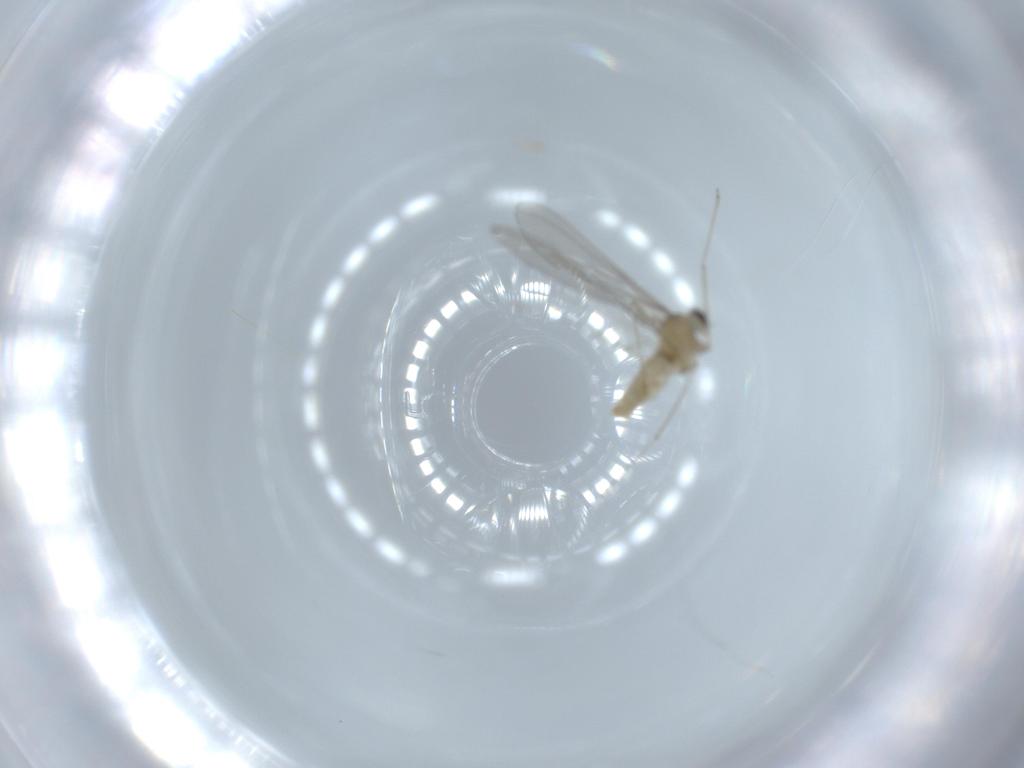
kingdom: Animalia
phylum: Arthropoda
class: Insecta
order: Diptera
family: Cecidomyiidae
